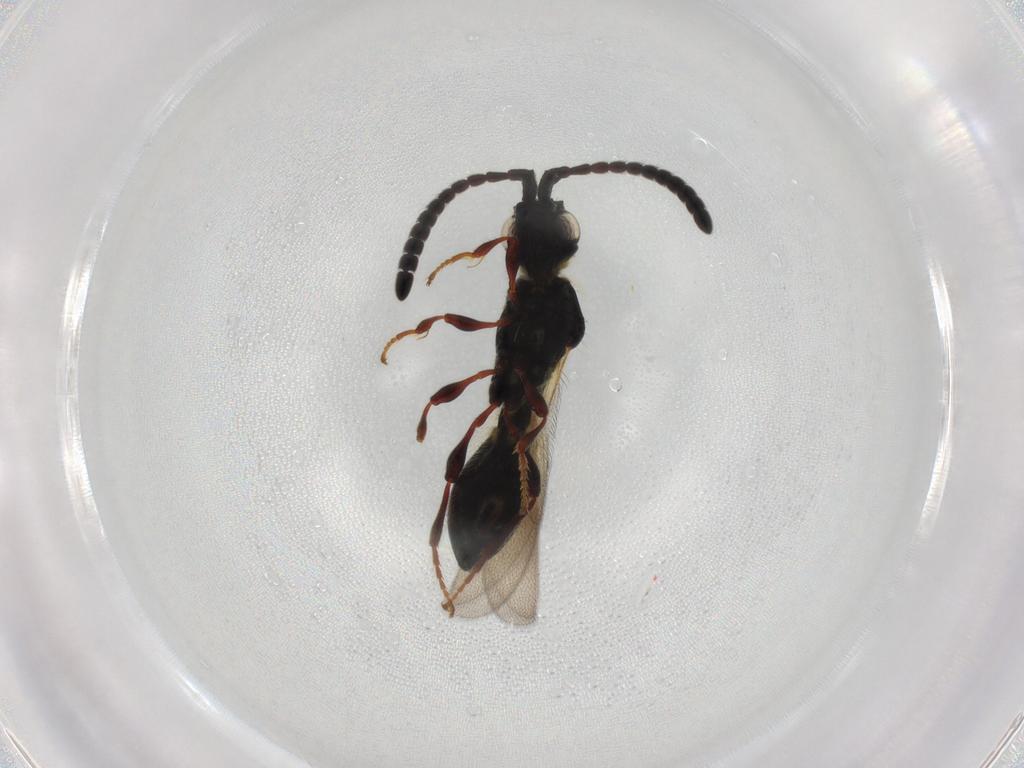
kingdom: Animalia
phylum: Arthropoda
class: Insecta
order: Hymenoptera
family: Diapriidae
